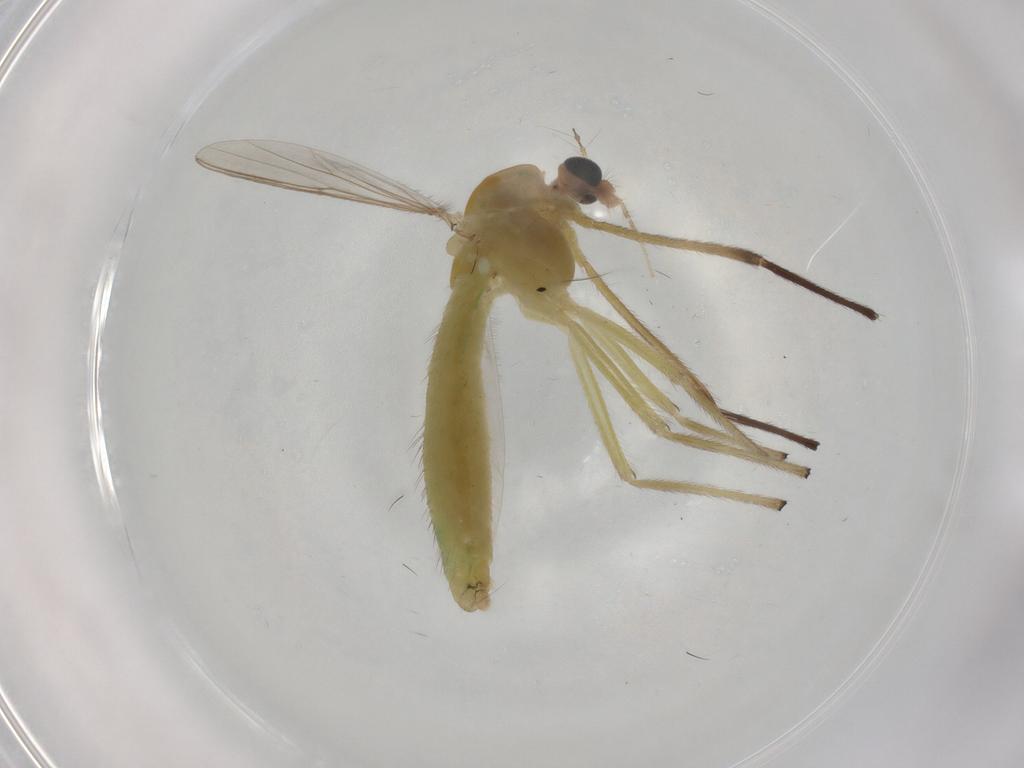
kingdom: Animalia
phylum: Arthropoda
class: Insecta
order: Diptera
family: Chironomidae
